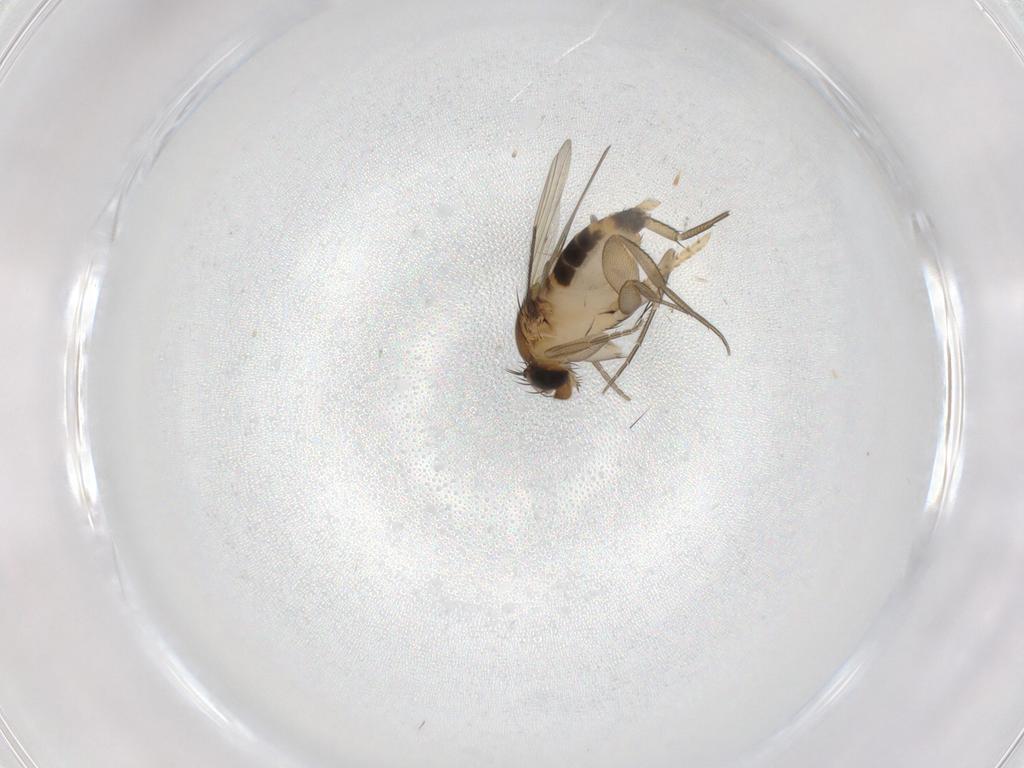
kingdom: Animalia
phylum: Arthropoda
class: Insecta
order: Diptera
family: Phoridae
